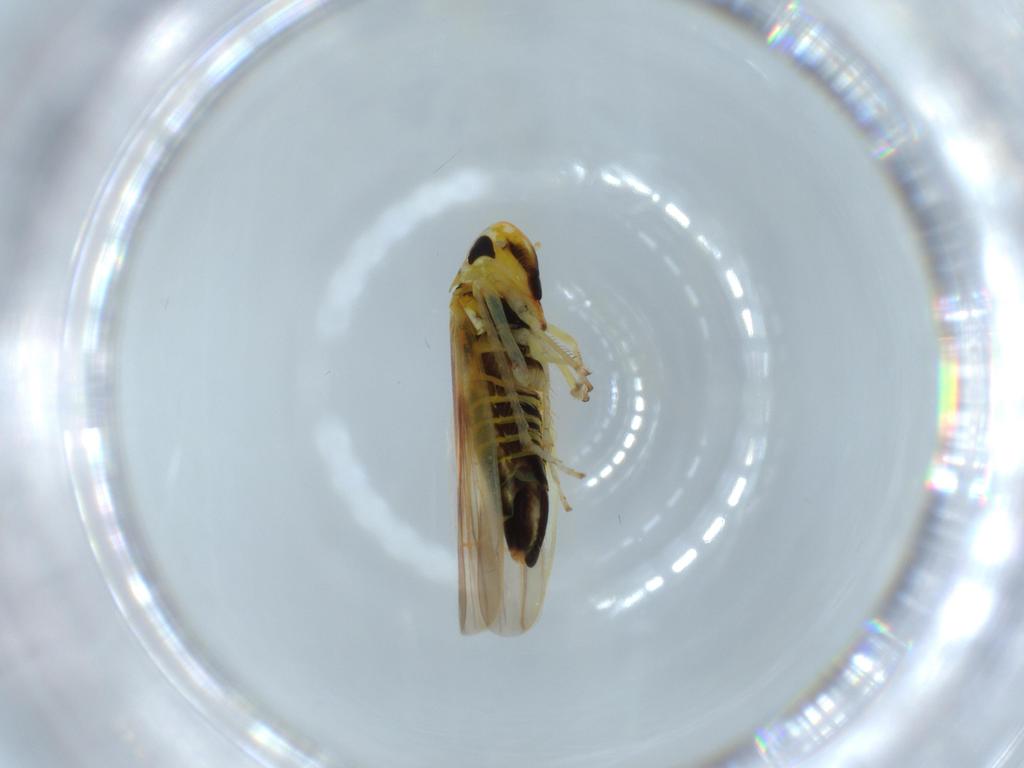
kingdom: Animalia
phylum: Arthropoda
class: Insecta
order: Hemiptera
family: Cicadellidae
